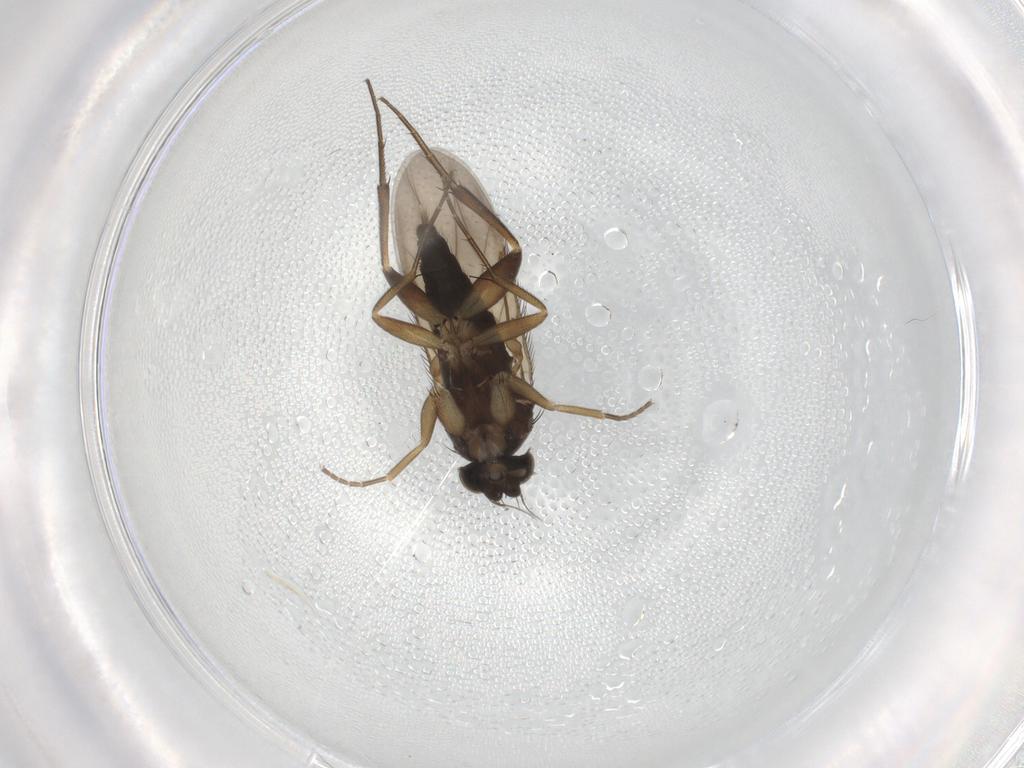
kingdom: Animalia
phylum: Arthropoda
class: Insecta
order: Diptera
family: Phoridae
